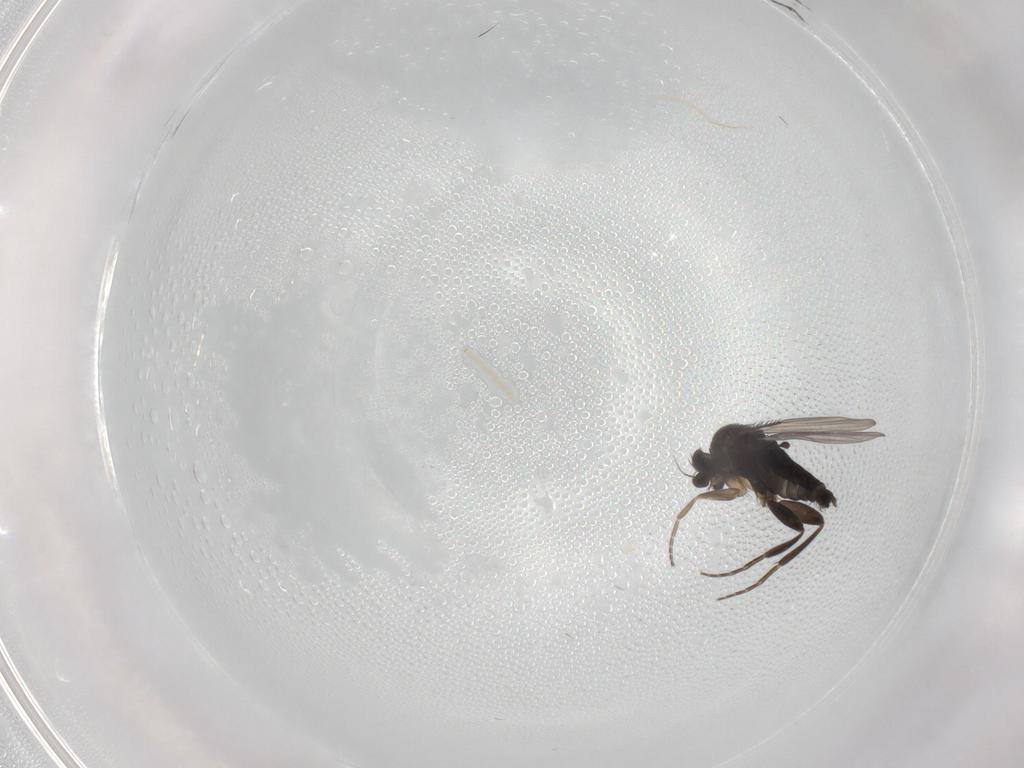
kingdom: Animalia
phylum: Arthropoda
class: Insecta
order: Diptera
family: Phoridae
